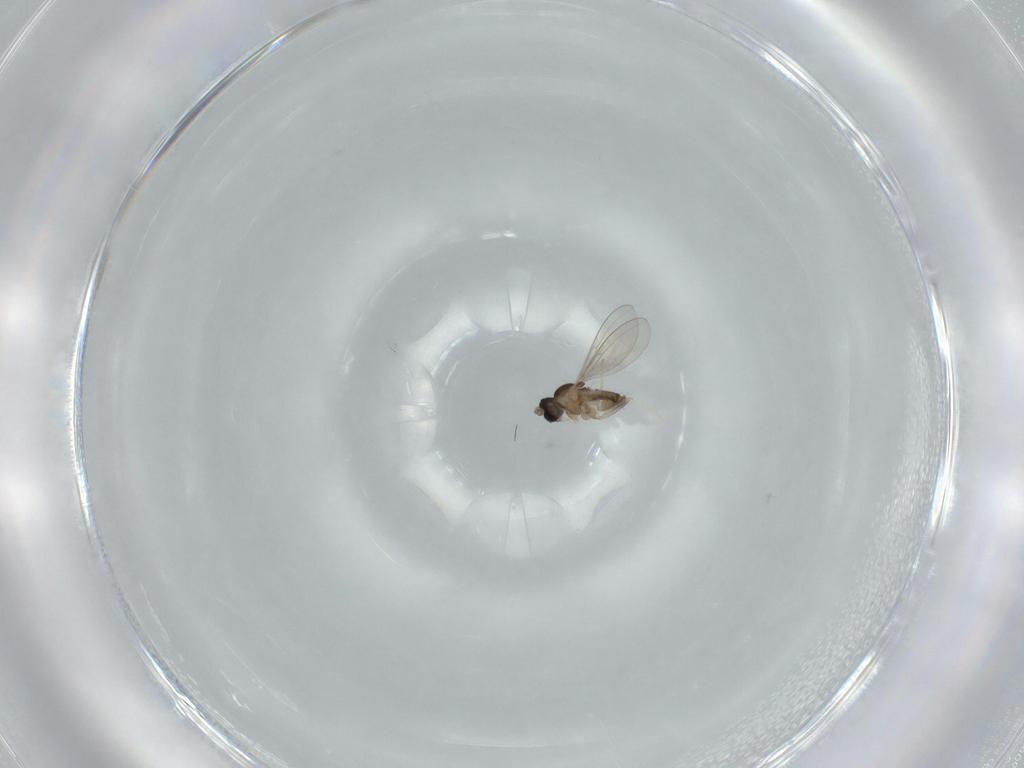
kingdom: Animalia
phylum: Arthropoda
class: Insecta
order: Diptera
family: Cecidomyiidae
